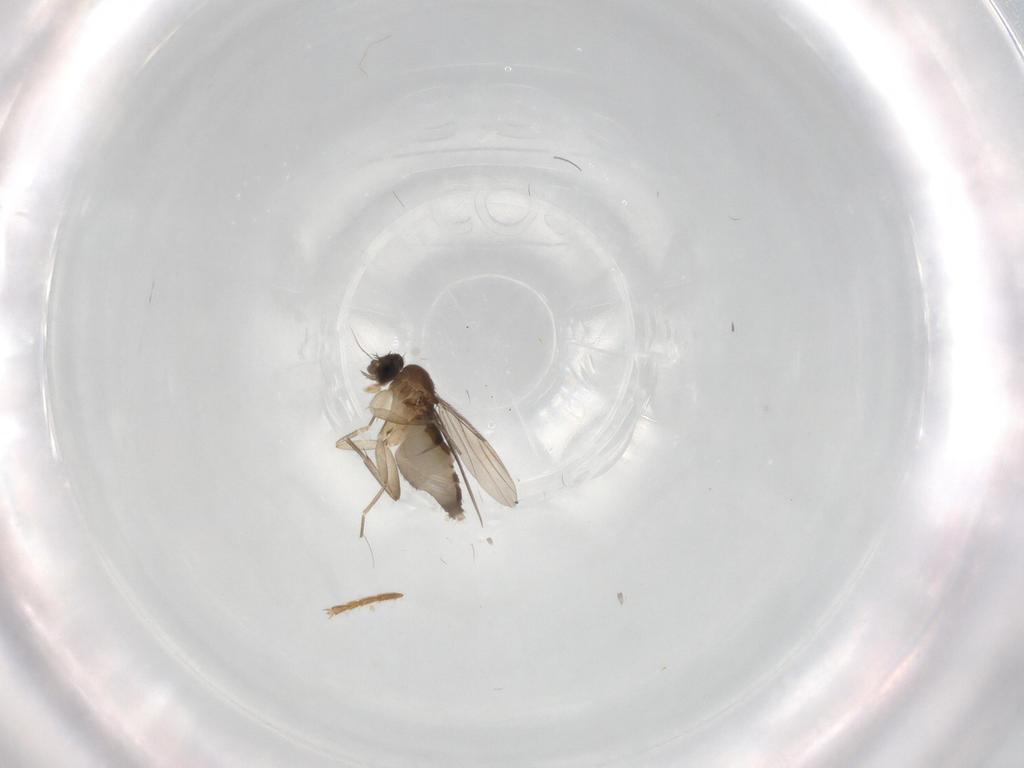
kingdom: Animalia
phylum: Arthropoda
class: Insecta
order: Diptera
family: Phoridae
